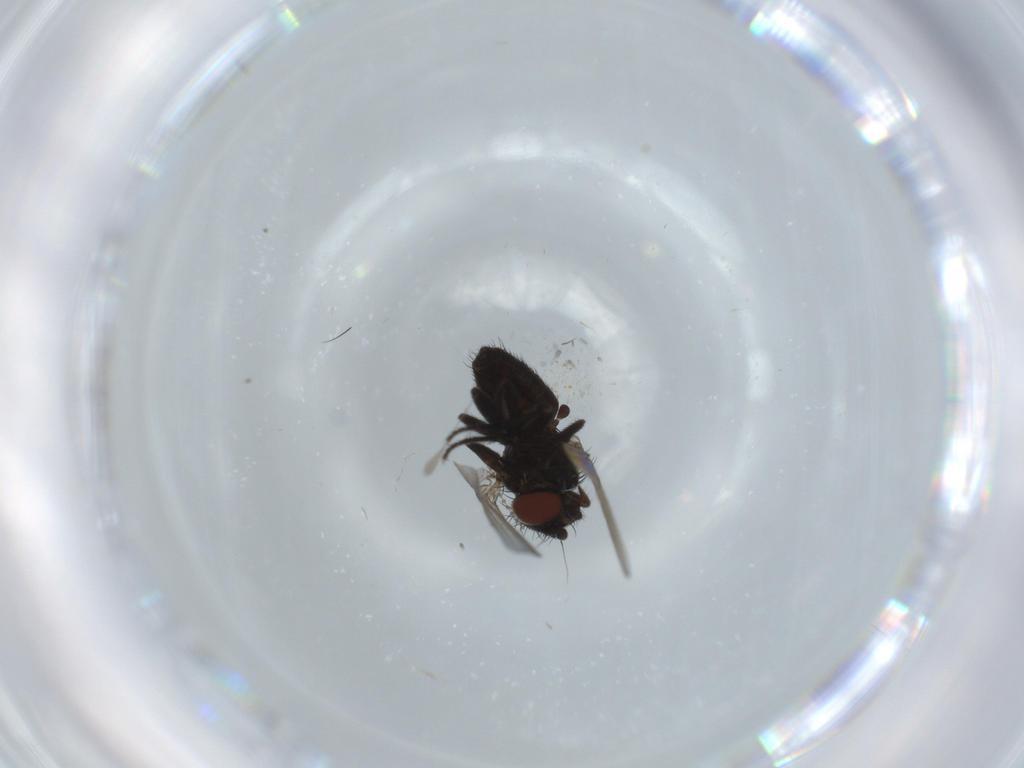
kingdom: Animalia
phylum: Arthropoda
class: Insecta
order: Diptera
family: Milichiidae
